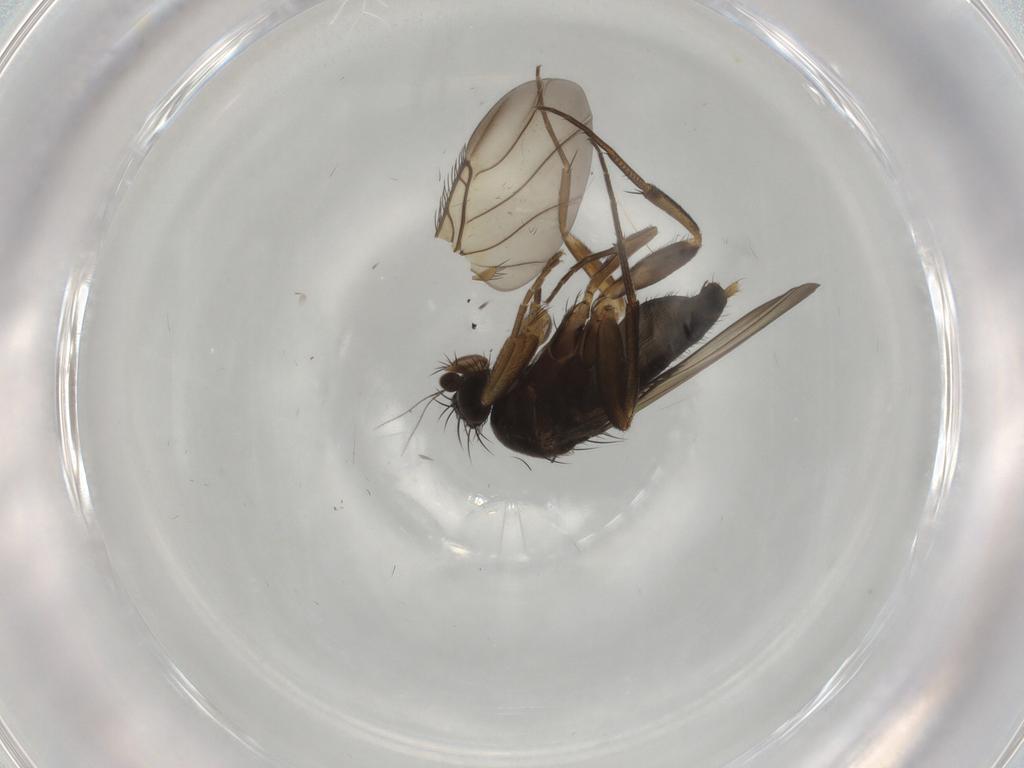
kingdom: Animalia
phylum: Arthropoda
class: Insecta
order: Diptera
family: Phoridae
